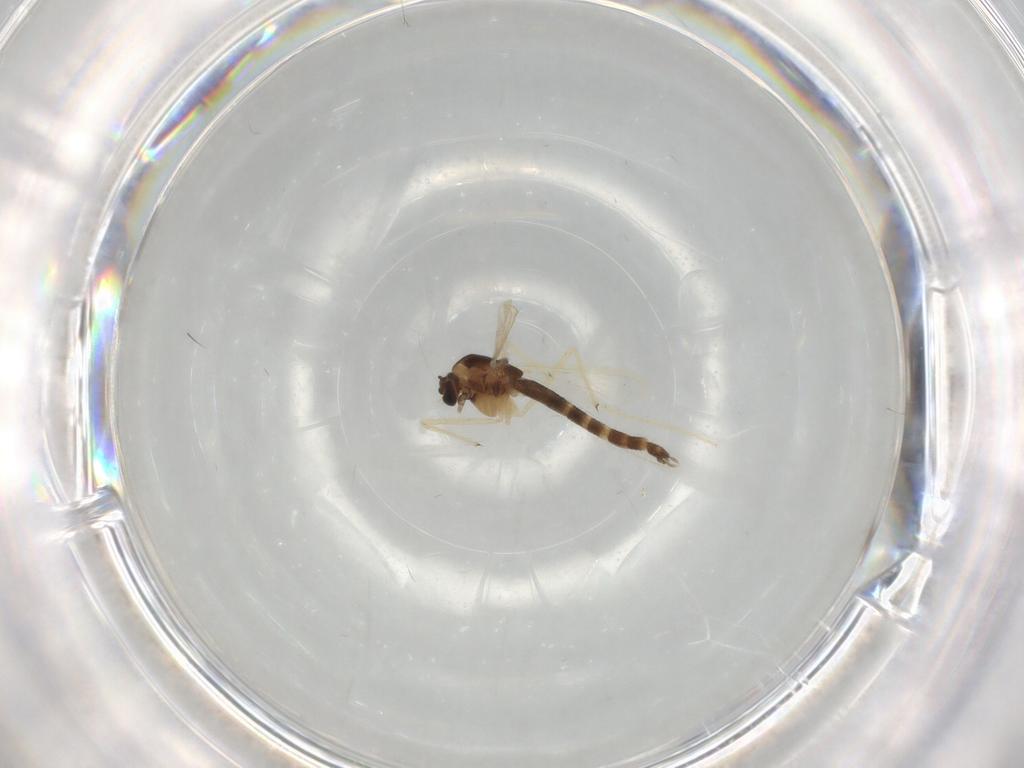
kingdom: Animalia
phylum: Arthropoda
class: Insecta
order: Diptera
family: Chironomidae
